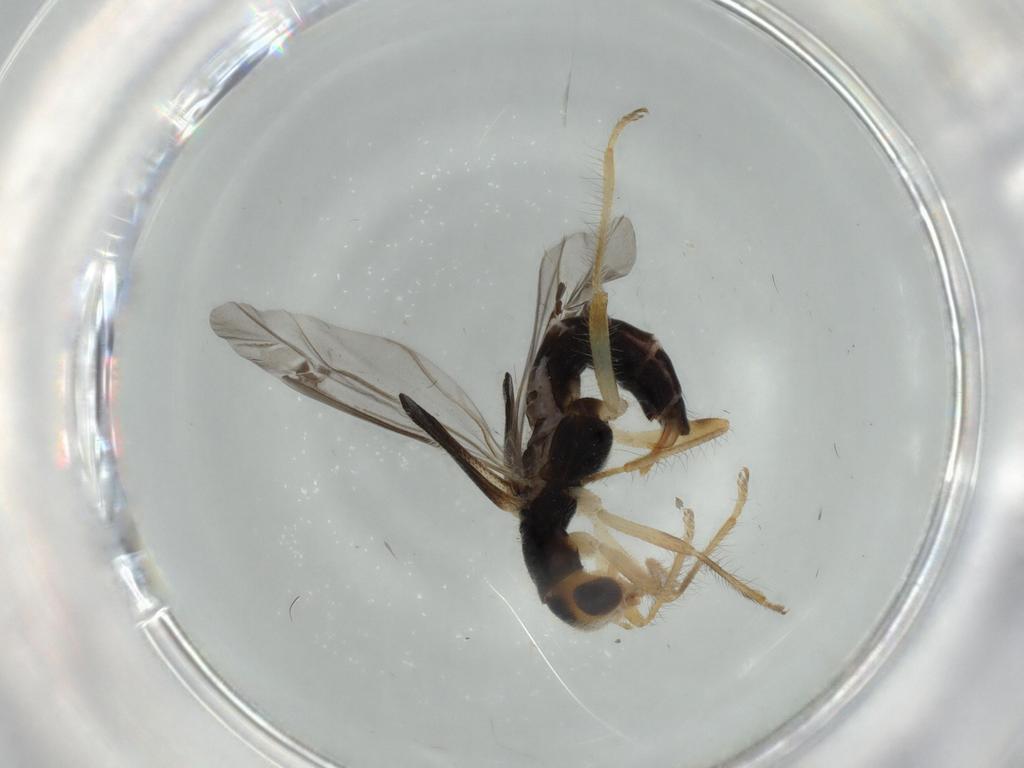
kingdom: Animalia
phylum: Arthropoda
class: Insecta
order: Coleoptera
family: Cleridae
